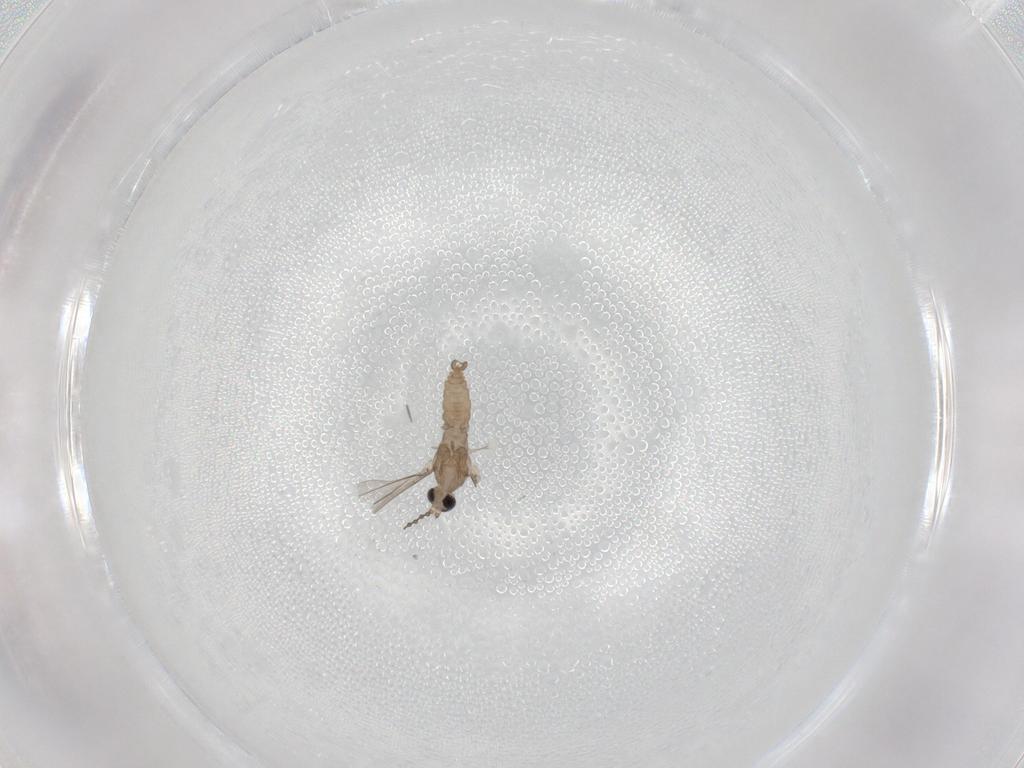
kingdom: Animalia
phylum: Arthropoda
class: Insecta
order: Diptera
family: Cecidomyiidae
